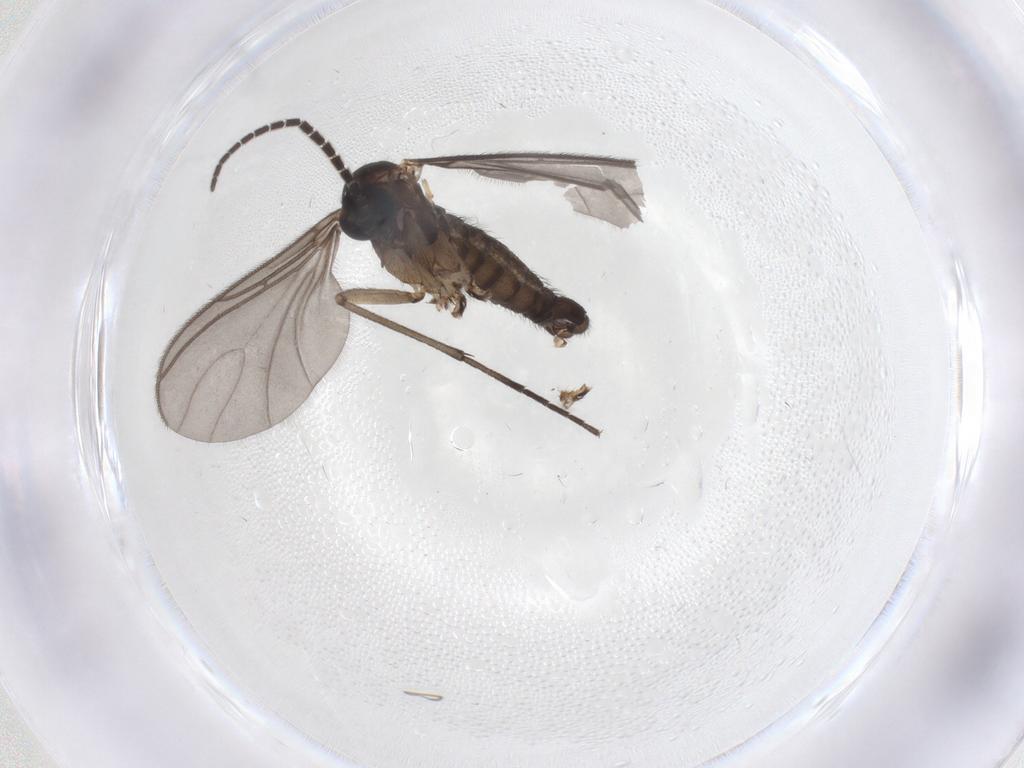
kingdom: Animalia
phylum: Arthropoda
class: Insecta
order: Diptera
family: Sciaridae
